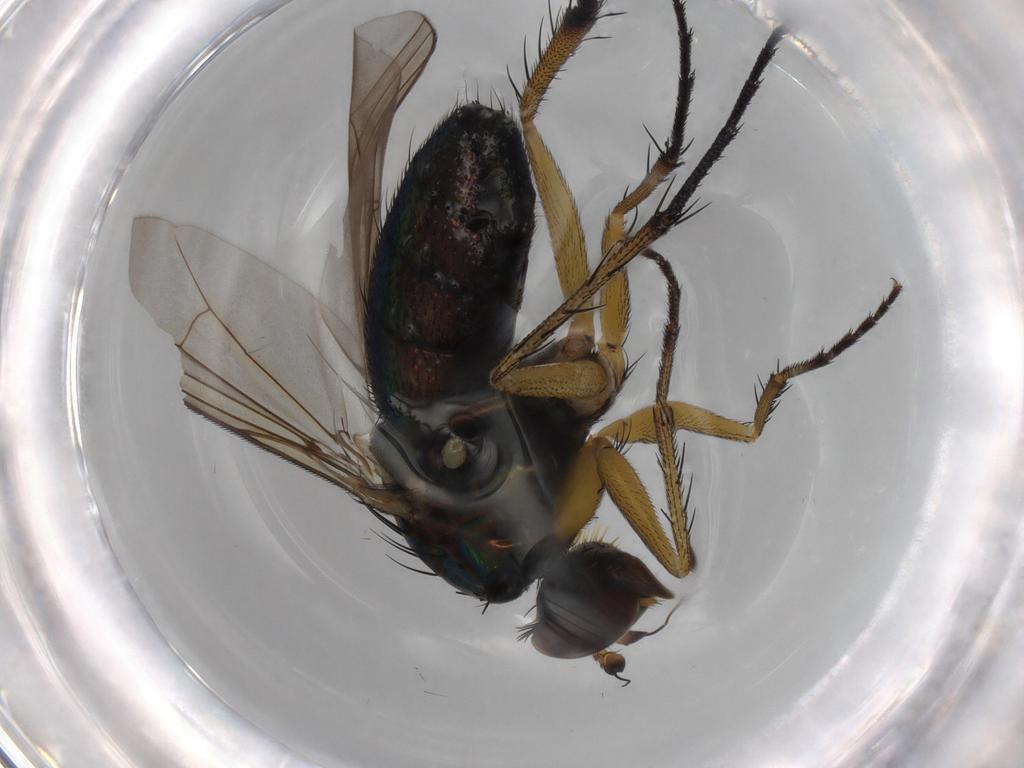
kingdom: Animalia
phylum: Arthropoda
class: Insecta
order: Diptera
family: Dolichopodidae
